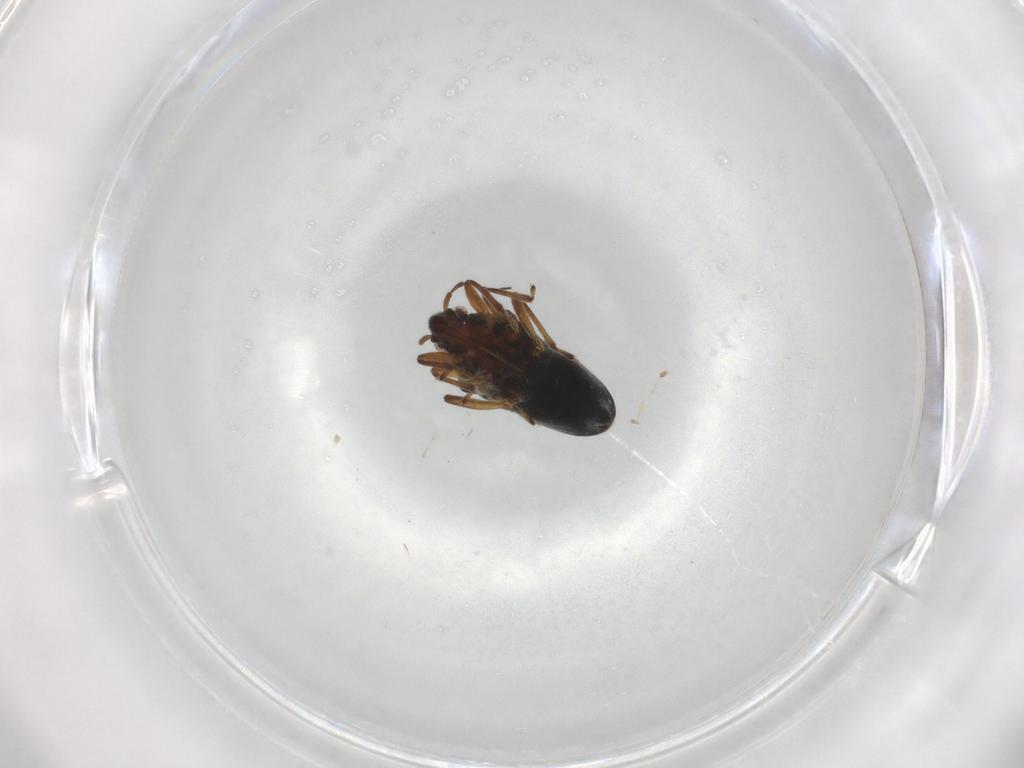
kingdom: Animalia
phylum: Arthropoda
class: Insecta
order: Hemiptera
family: Hebridae
